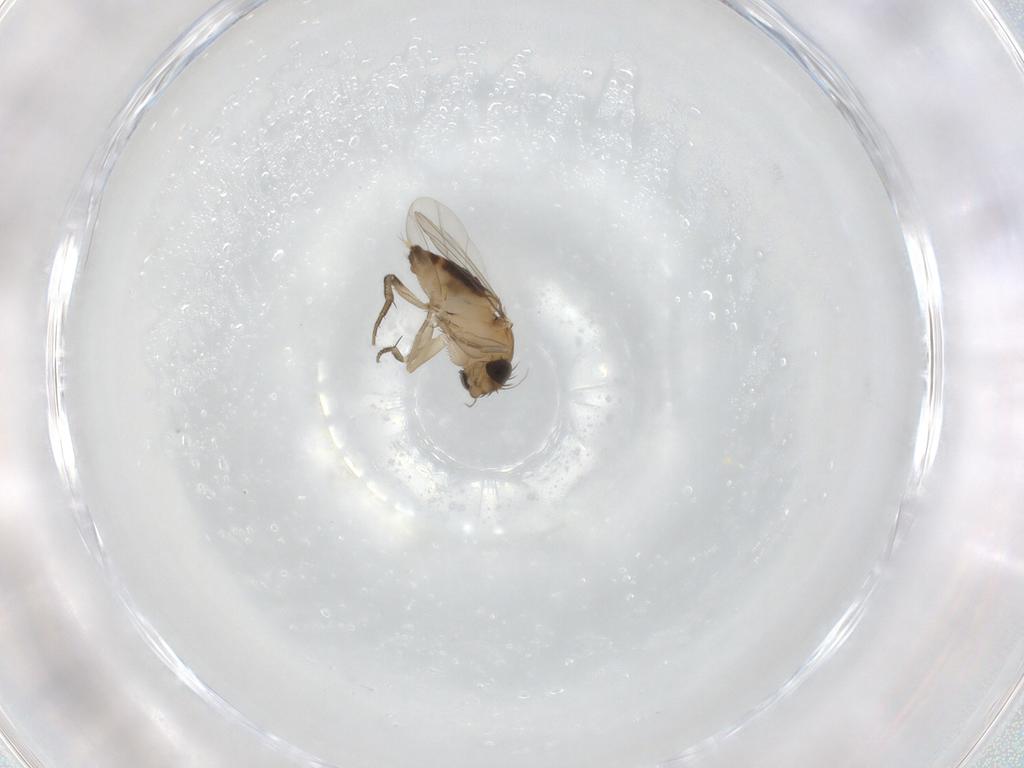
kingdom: Animalia
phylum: Arthropoda
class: Insecta
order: Diptera
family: Phoridae
